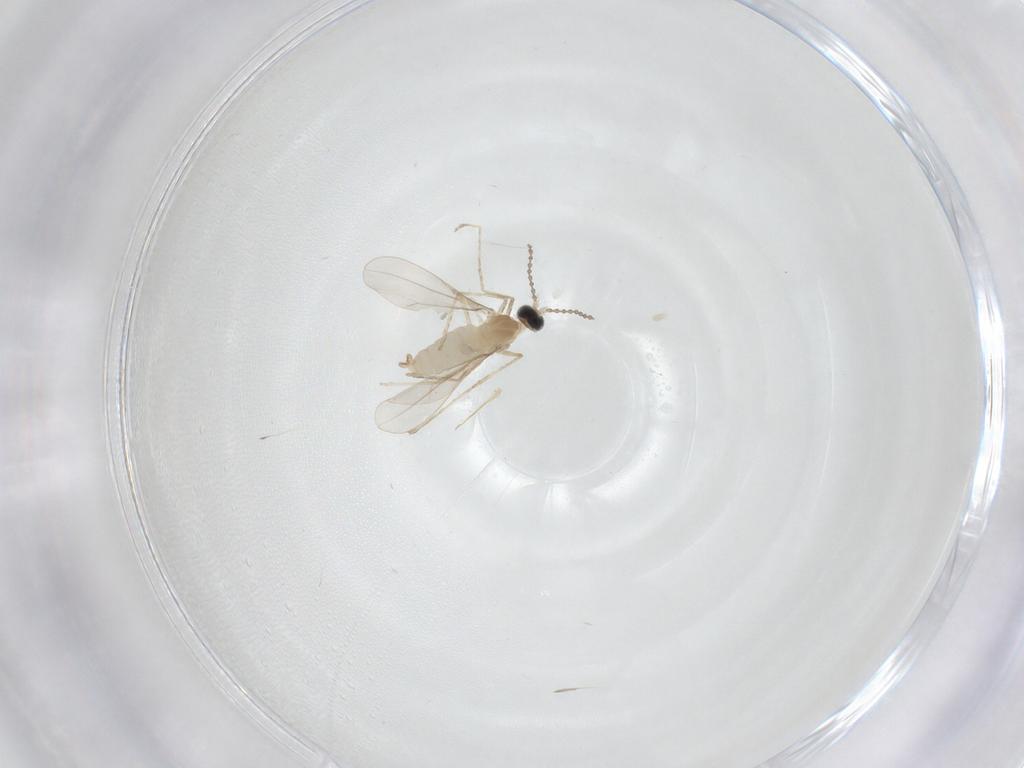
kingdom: Animalia
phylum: Arthropoda
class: Insecta
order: Diptera
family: Cecidomyiidae
